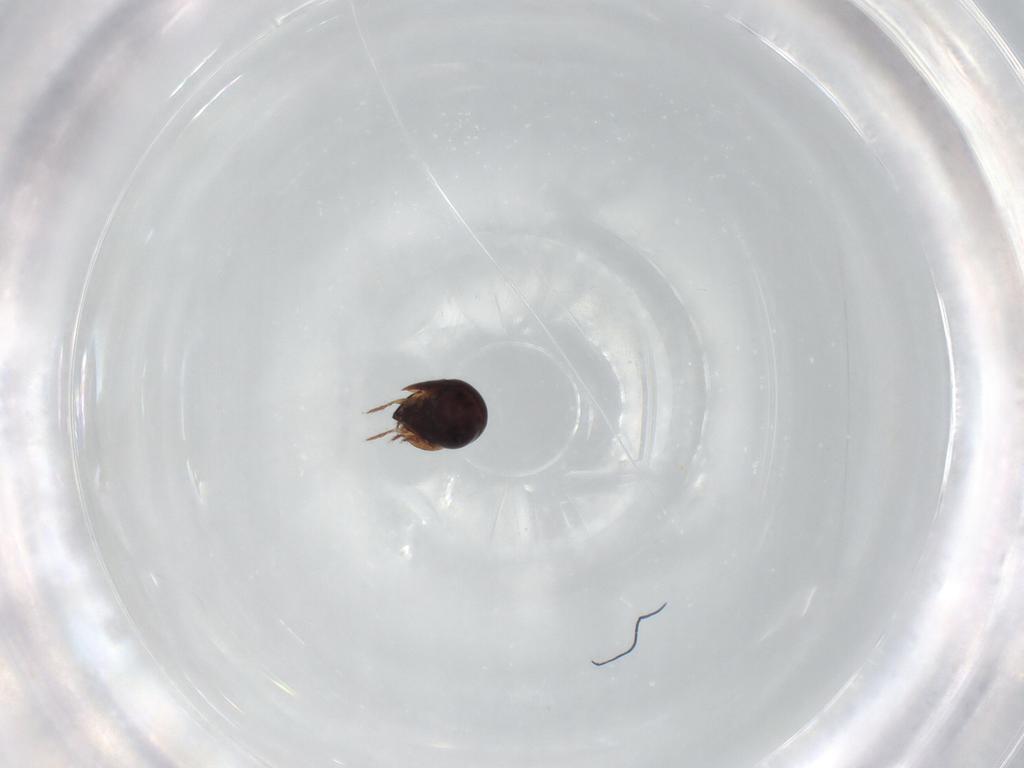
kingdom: Animalia
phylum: Arthropoda
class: Arachnida
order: Sarcoptiformes
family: Ceratozetidae
